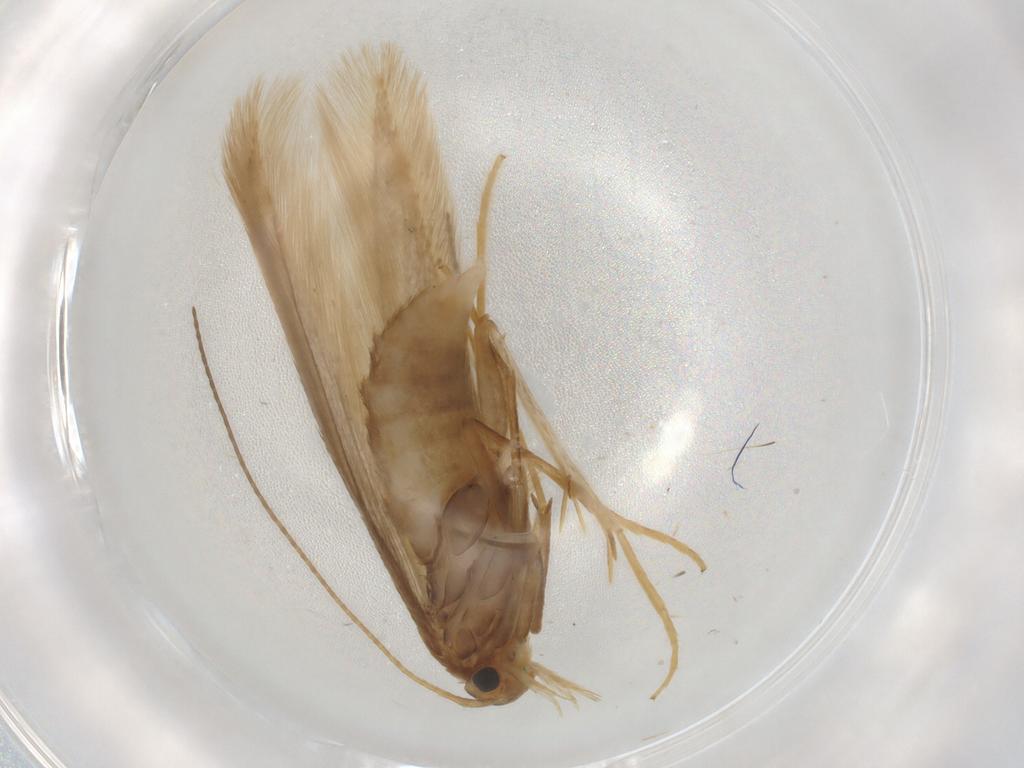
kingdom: Animalia
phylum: Arthropoda
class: Insecta
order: Lepidoptera
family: Coleophoridae
